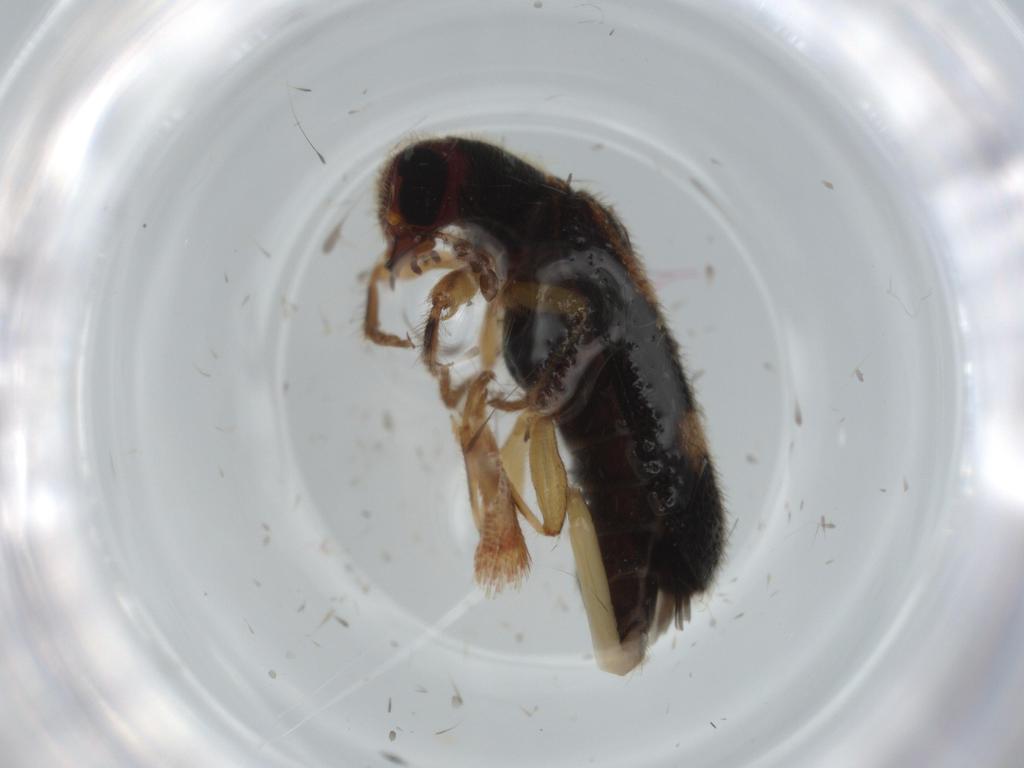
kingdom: Animalia
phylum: Arthropoda
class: Insecta
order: Coleoptera
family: Cleridae
